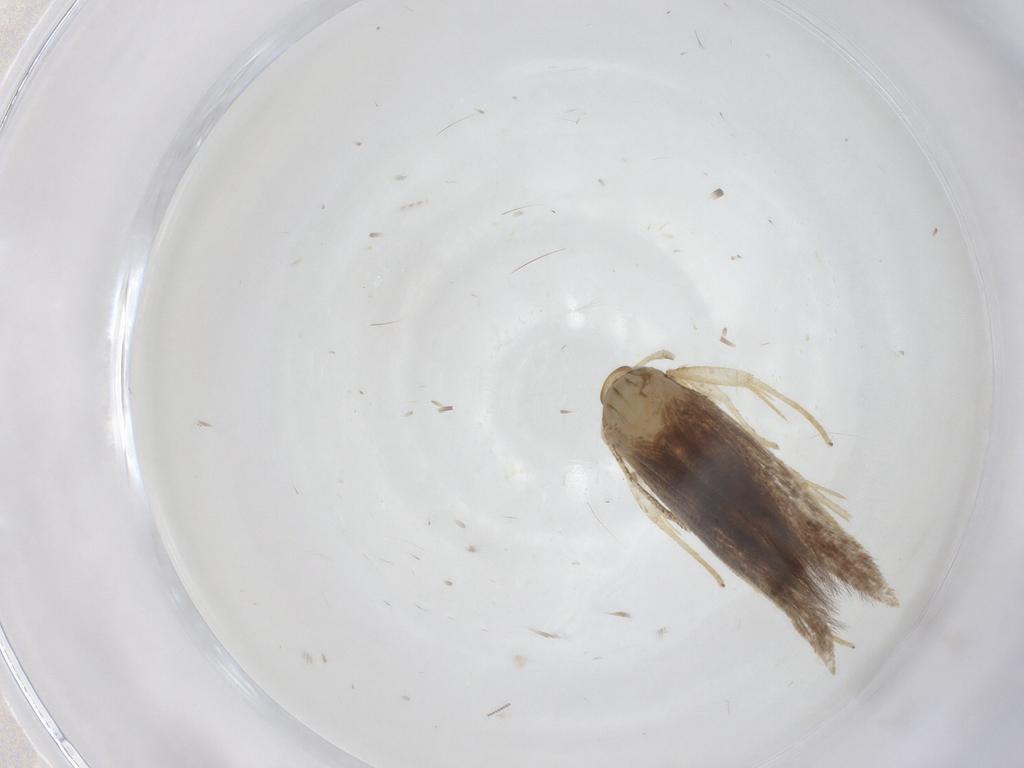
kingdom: Animalia
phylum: Arthropoda
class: Insecta
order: Lepidoptera
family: Cosmopterigidae
